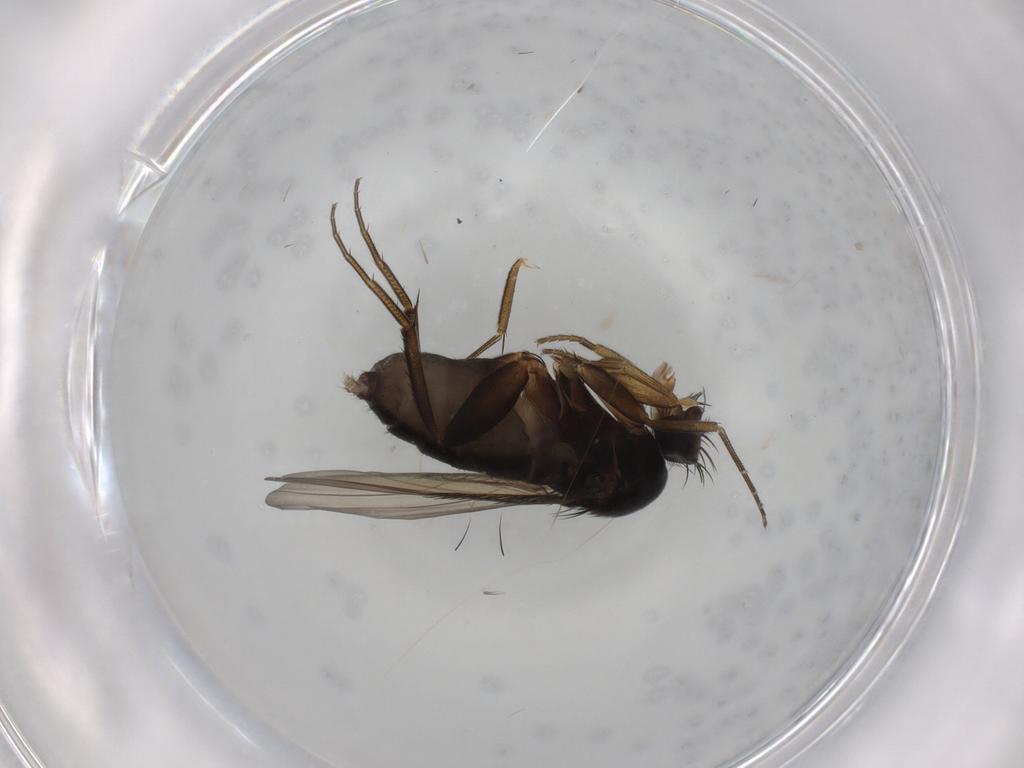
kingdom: Animalia
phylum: Arthropoda
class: Insecta
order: Diptera
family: Phoridae
